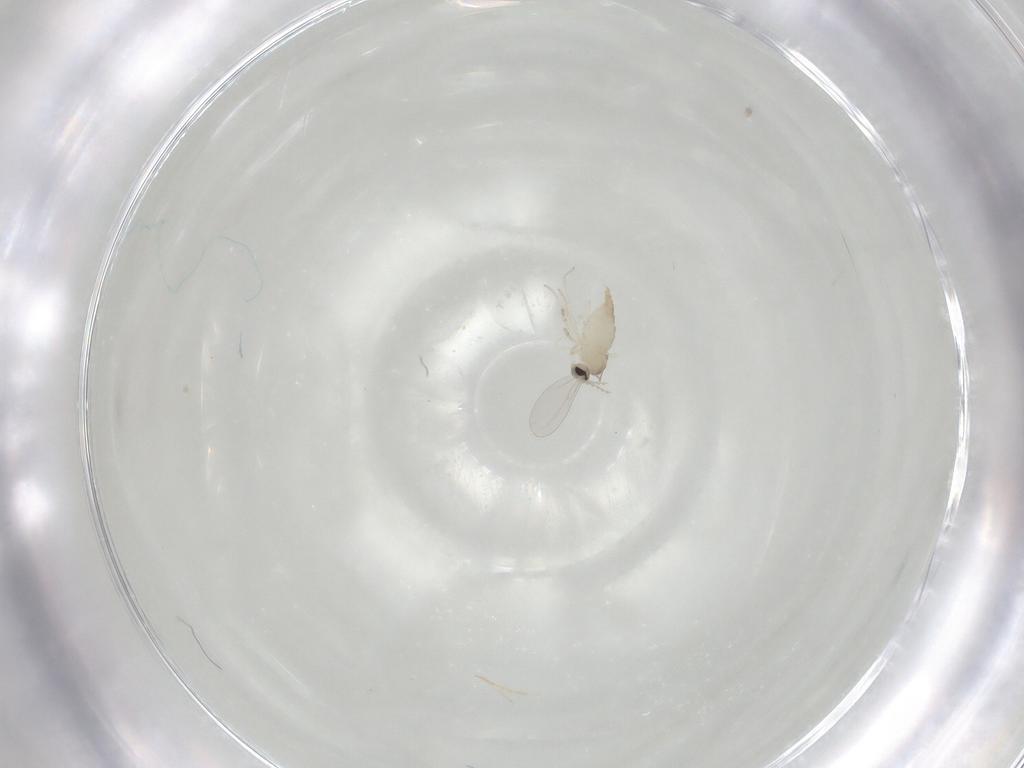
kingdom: Animalia
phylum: Arthropoda
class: Insecta
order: Diptera
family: Cecidomyiidae
